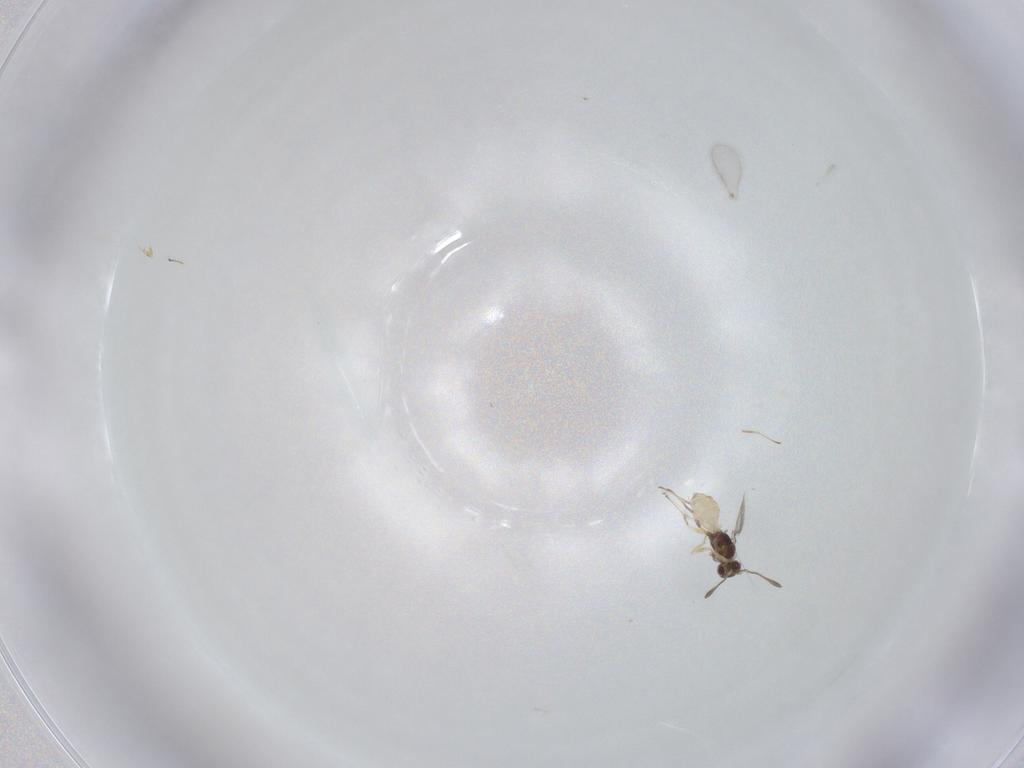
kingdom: Animalia
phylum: Arthropoda
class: Insecta
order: Hymenoptera
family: Mymaridae
